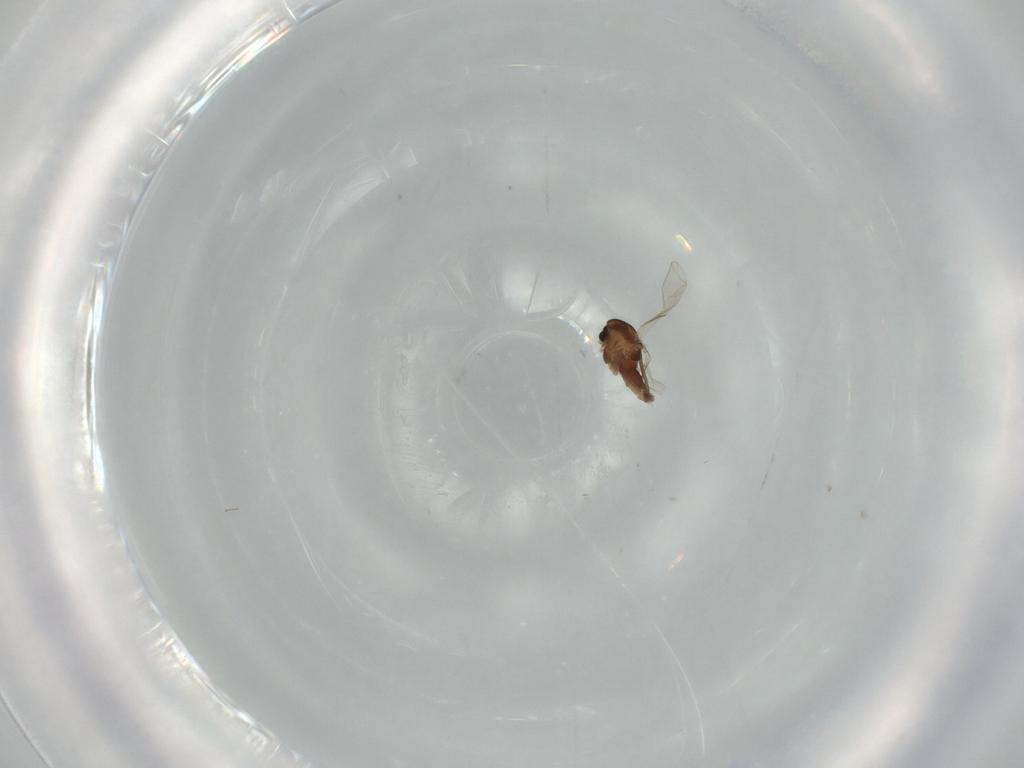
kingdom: Animalia
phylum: Arthropoda
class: Insecta
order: Diptera
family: Chironomidae
